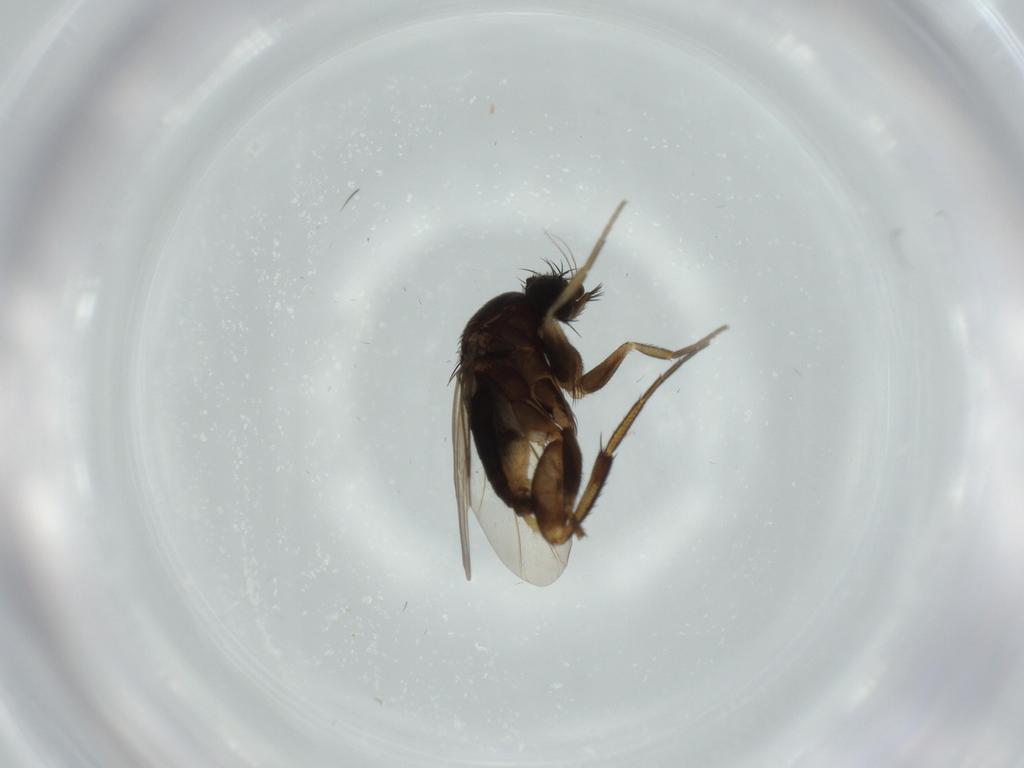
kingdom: Animalia
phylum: Arthropoda
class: Insecta
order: Diptera
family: Phoridae
